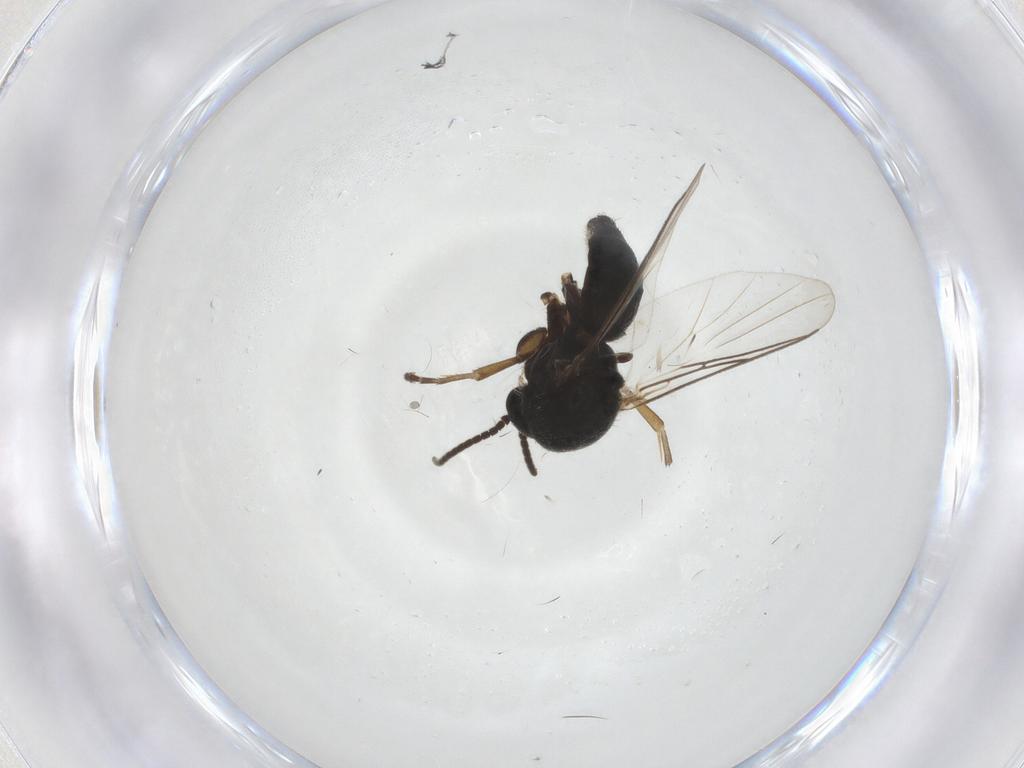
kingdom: Animalia
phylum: Arthropoda
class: Insecta
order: Diptera
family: Mycetophilidae
